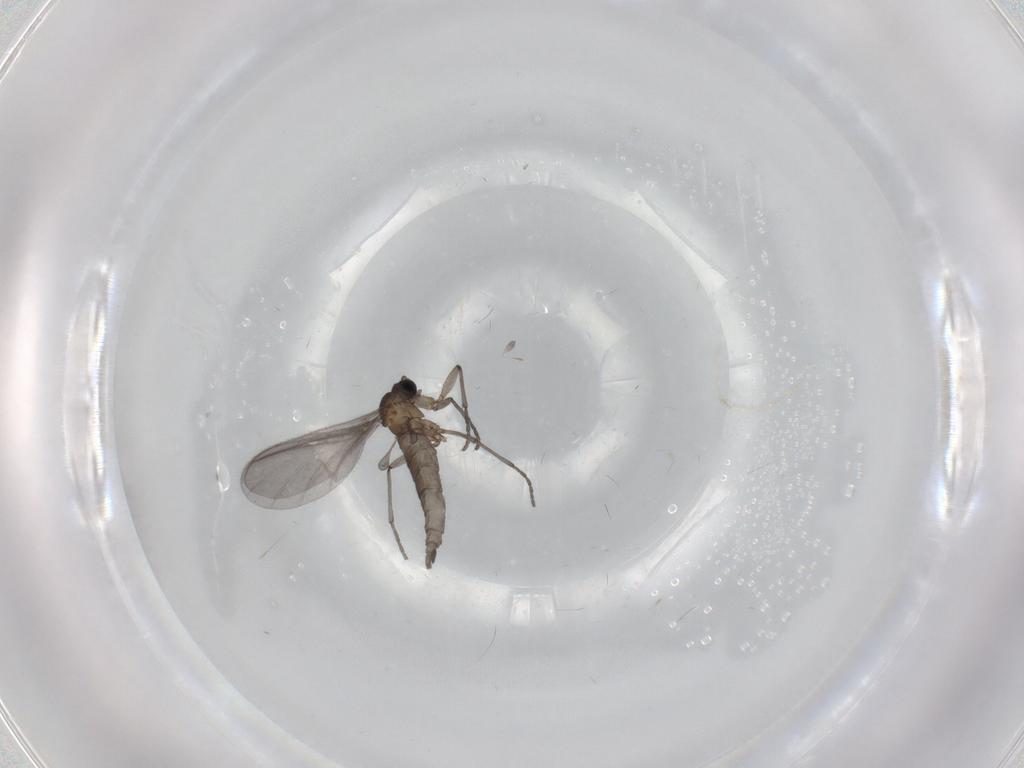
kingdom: Animalia
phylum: Arthropoda
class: Insecta
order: Diptera
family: Sciaridae
